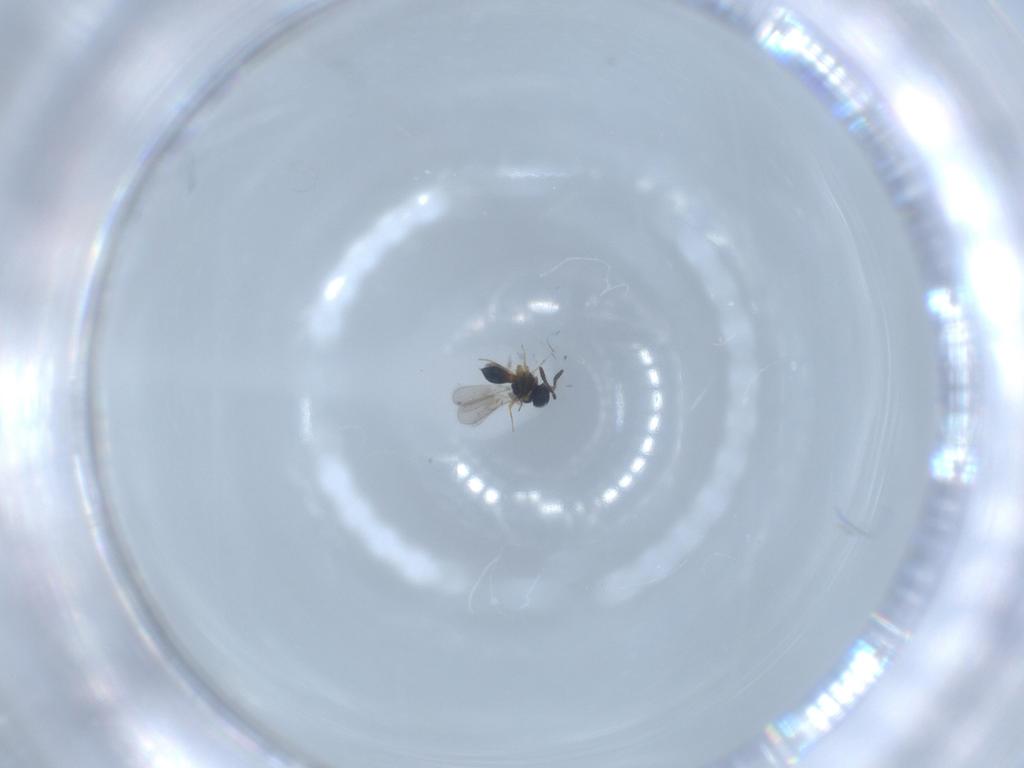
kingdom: Animalia
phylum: Arthropoda
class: Insecta
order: Hymenoptera
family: Scelionidae
